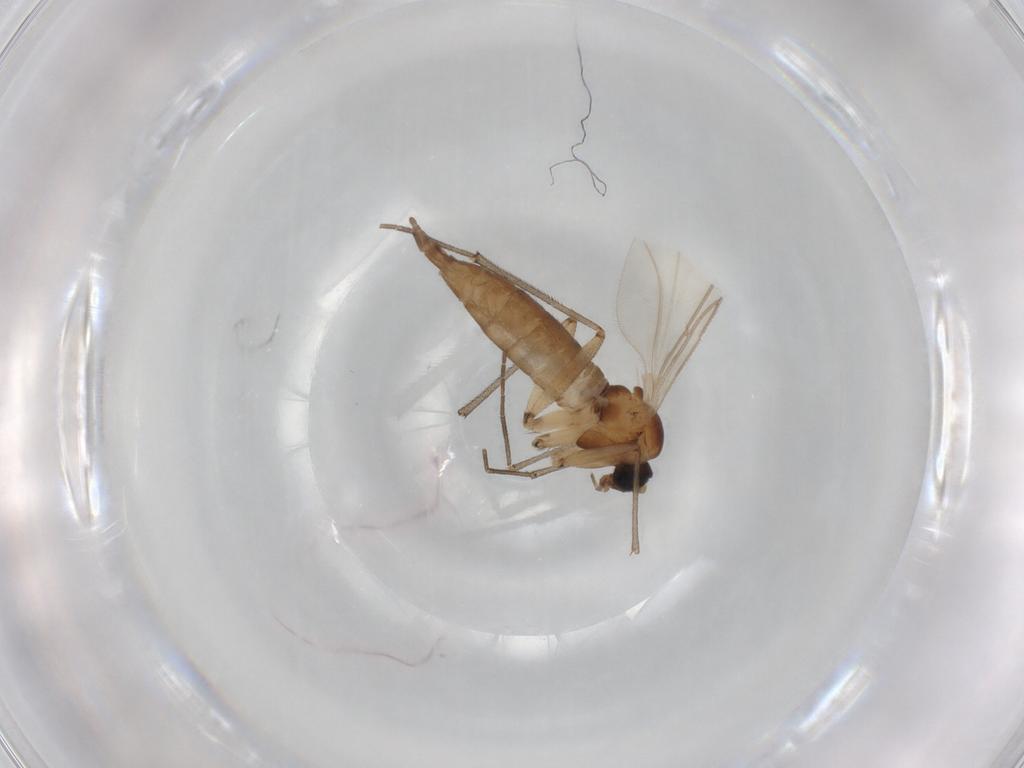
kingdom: Animalia
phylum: Arthropoda
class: Insecta
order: Diptera
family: Sciaridae
